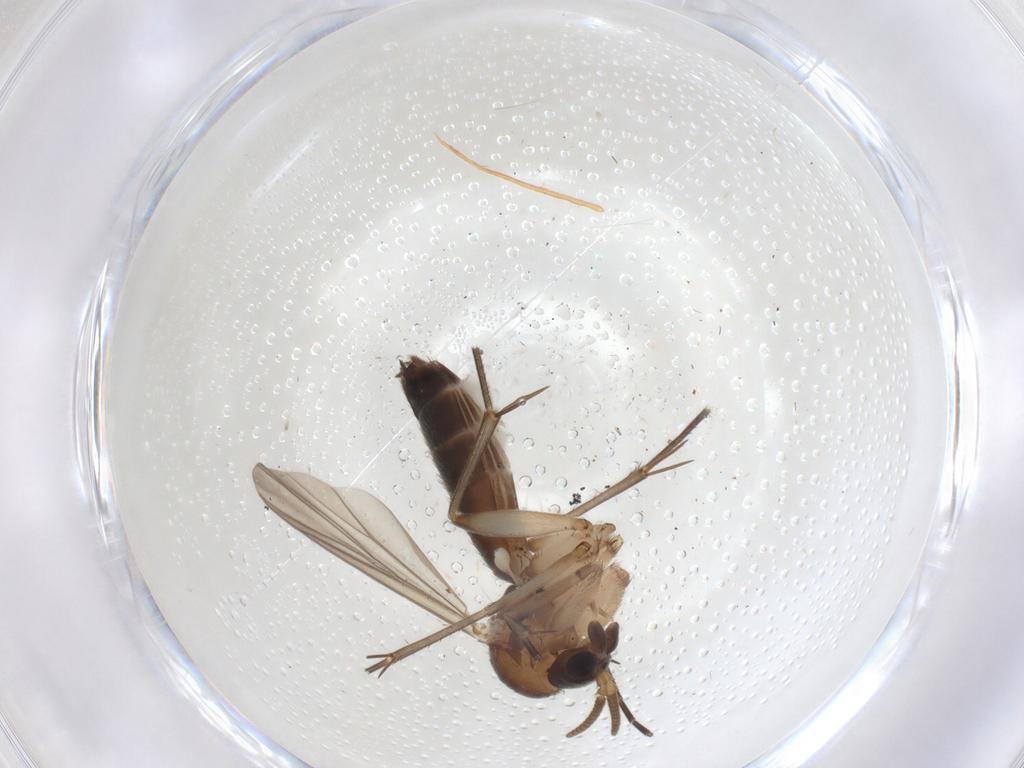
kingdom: Animalia
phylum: Arthropoda
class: Insecta
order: Diptera
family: Mycetophilidae
